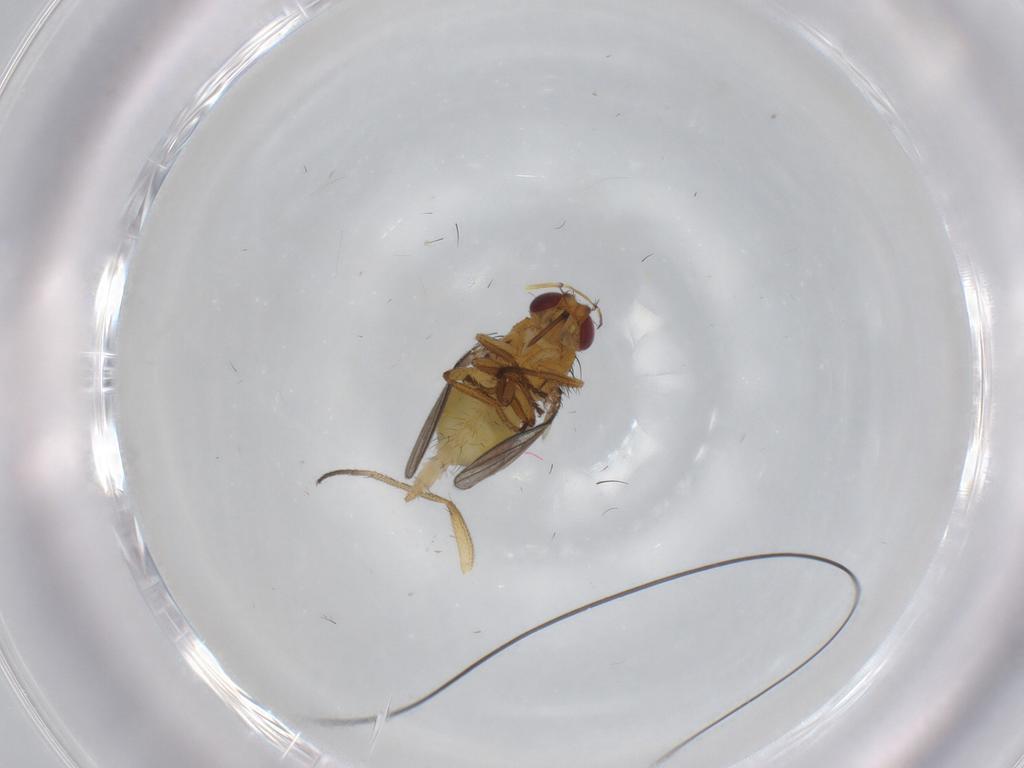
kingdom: Animalia
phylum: Arthropoda
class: Insecta
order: Diptera
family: Milichiidae
